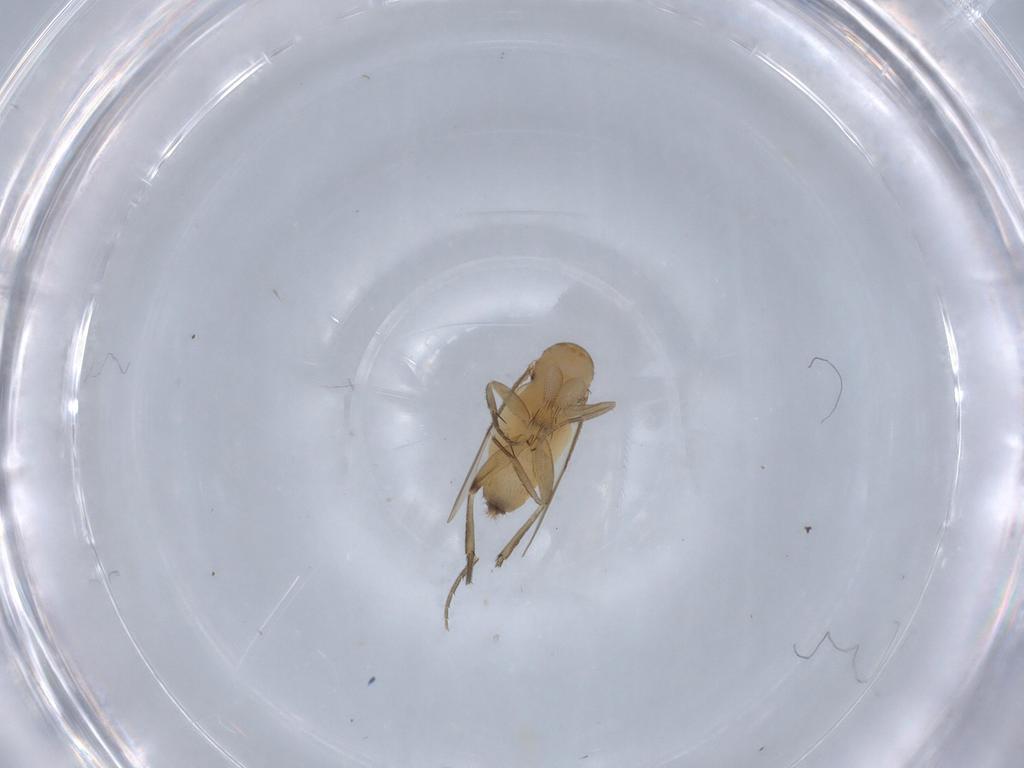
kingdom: Animalia
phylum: Arthropoda
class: Insecta
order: Diptera
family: Phoridae
